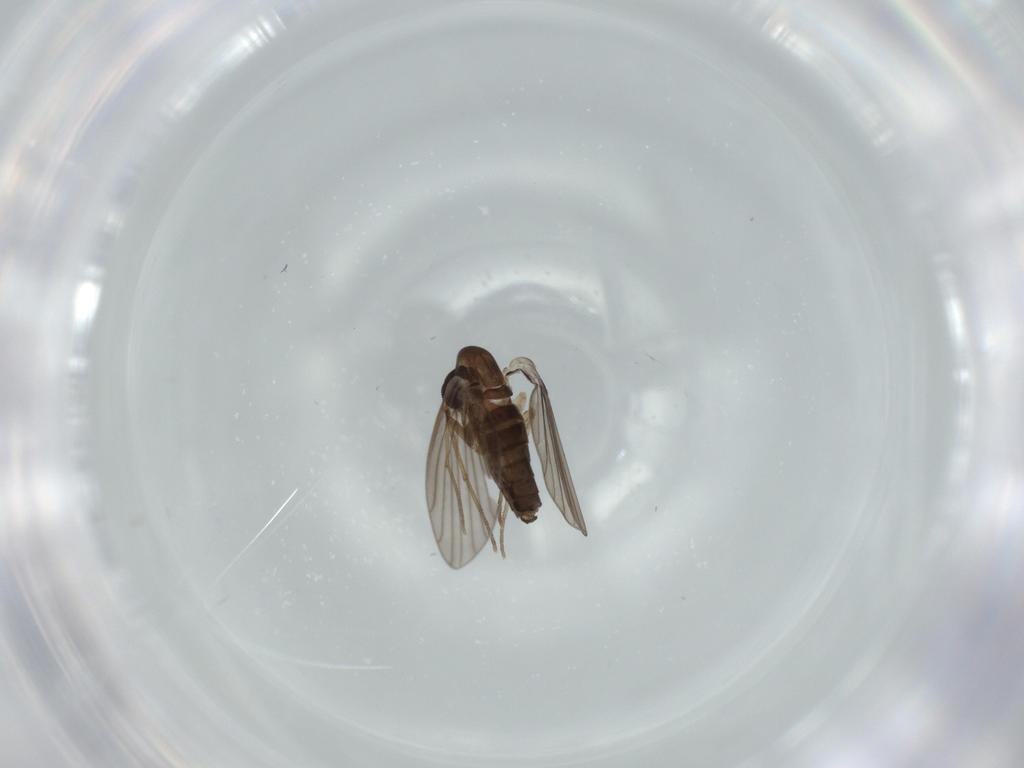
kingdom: Animalia
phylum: Arthropoda
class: Insecta
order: Diptera
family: Psychodidae
